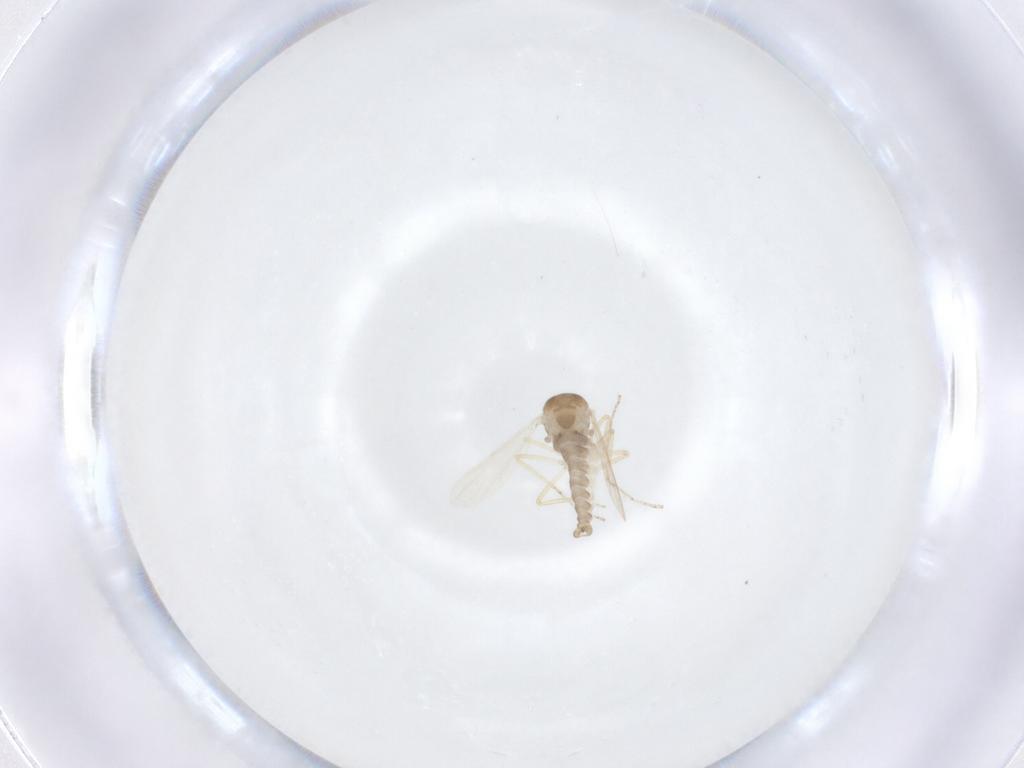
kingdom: Animalia
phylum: Arthropoda
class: Insecta
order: Diptera
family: Ceratopogonidae
